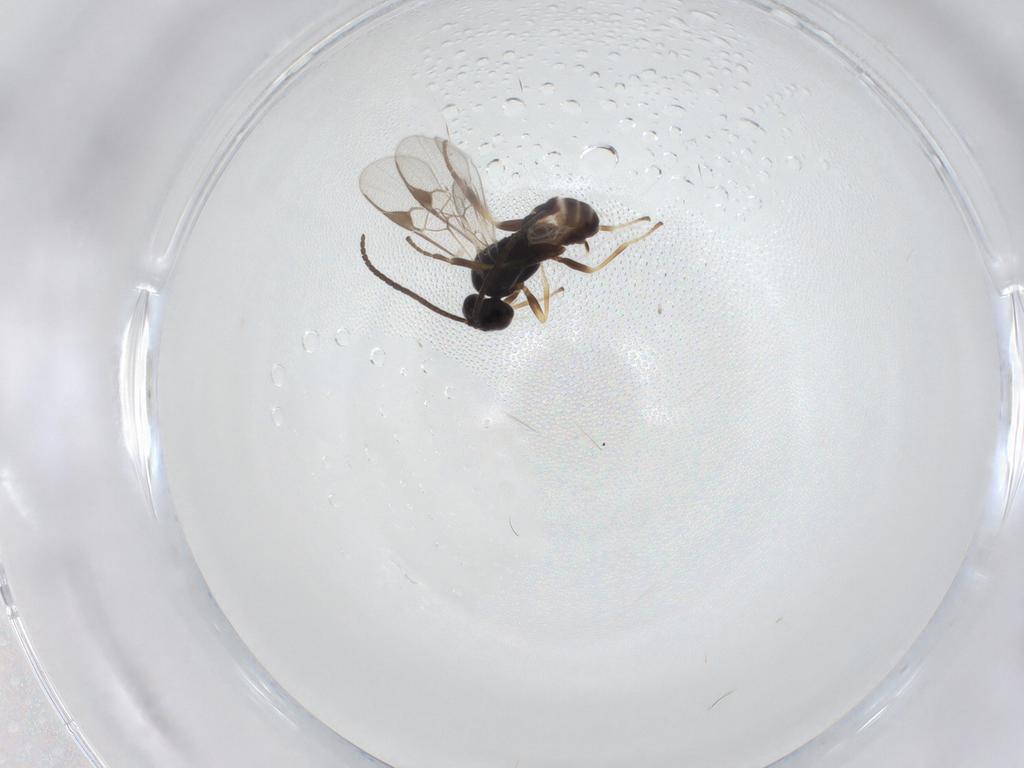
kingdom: Animalia
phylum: Arthropoda
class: Insecta
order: Hymenoptera
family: Braconidae
